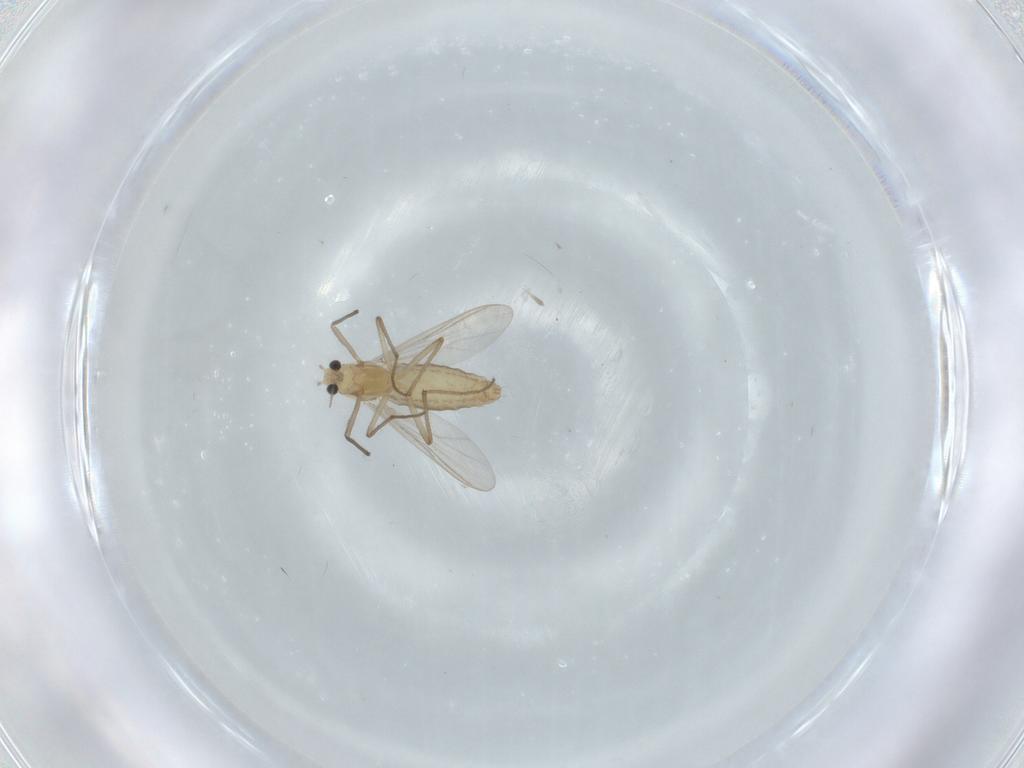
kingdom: Animalia
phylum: Arthropoda
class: Insecta
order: Diptera
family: Chironomidae
